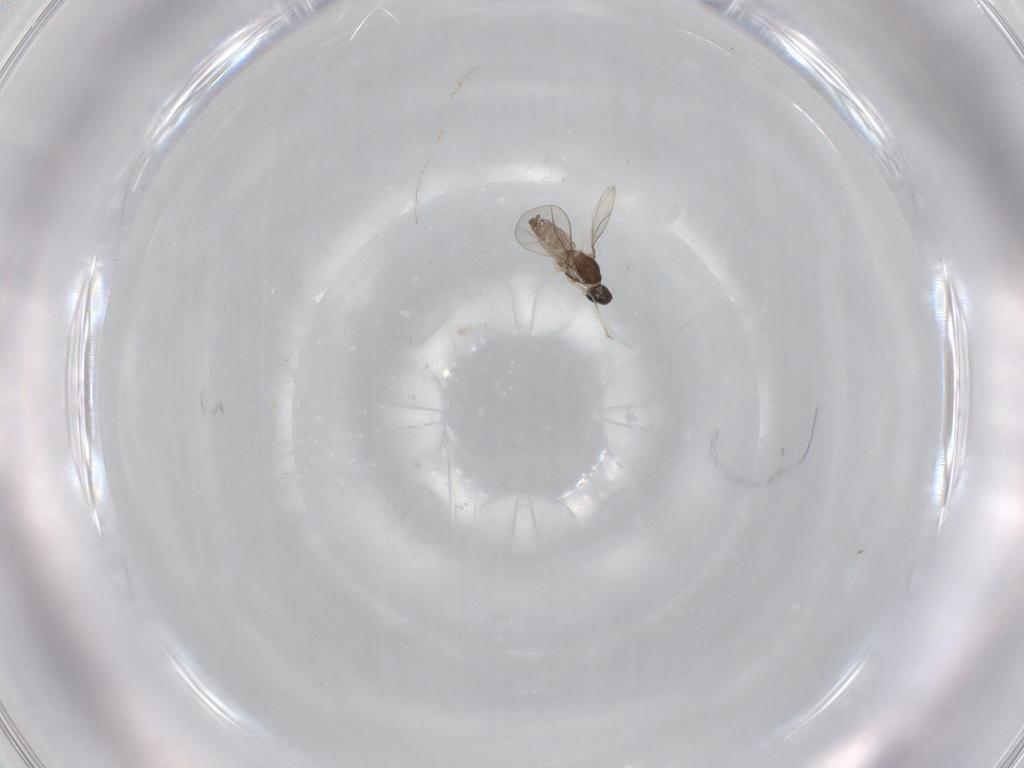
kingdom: Animalia
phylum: Arthropoda
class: Insecta
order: Diptera
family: Cecidomyiidae
